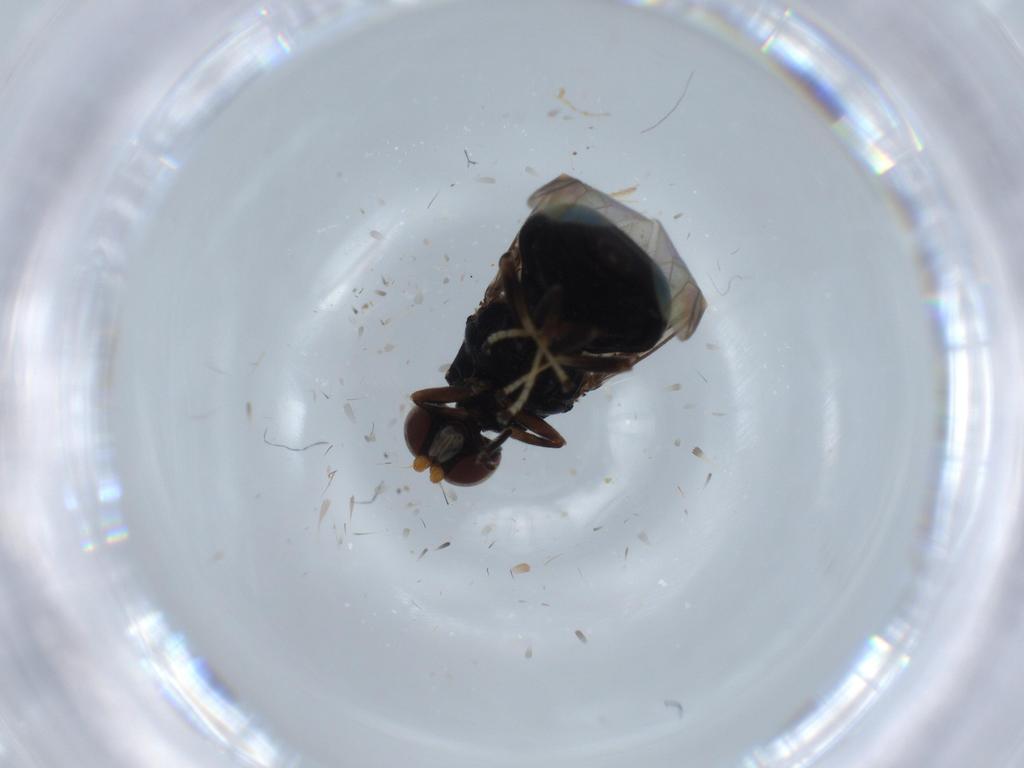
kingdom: Animalia
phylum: Arthropoda
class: Insecta
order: Diptera
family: Stratiomyidae
